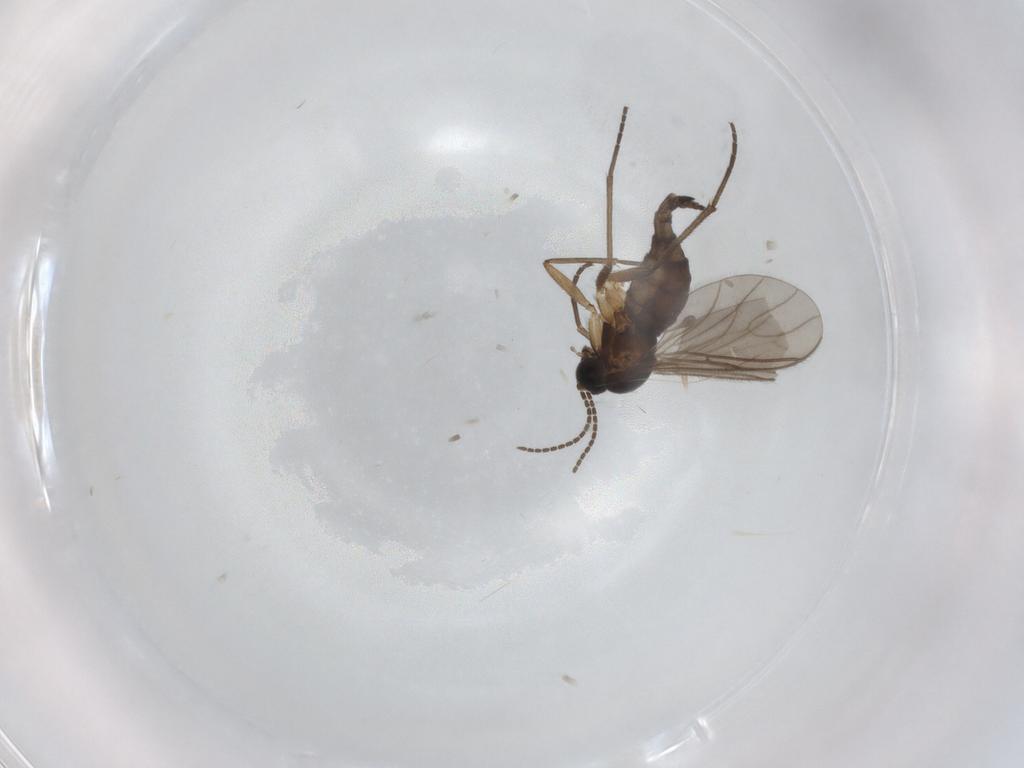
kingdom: Animalia
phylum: Arthropoda
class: Insecta
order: Diptera
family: Sciaridae
